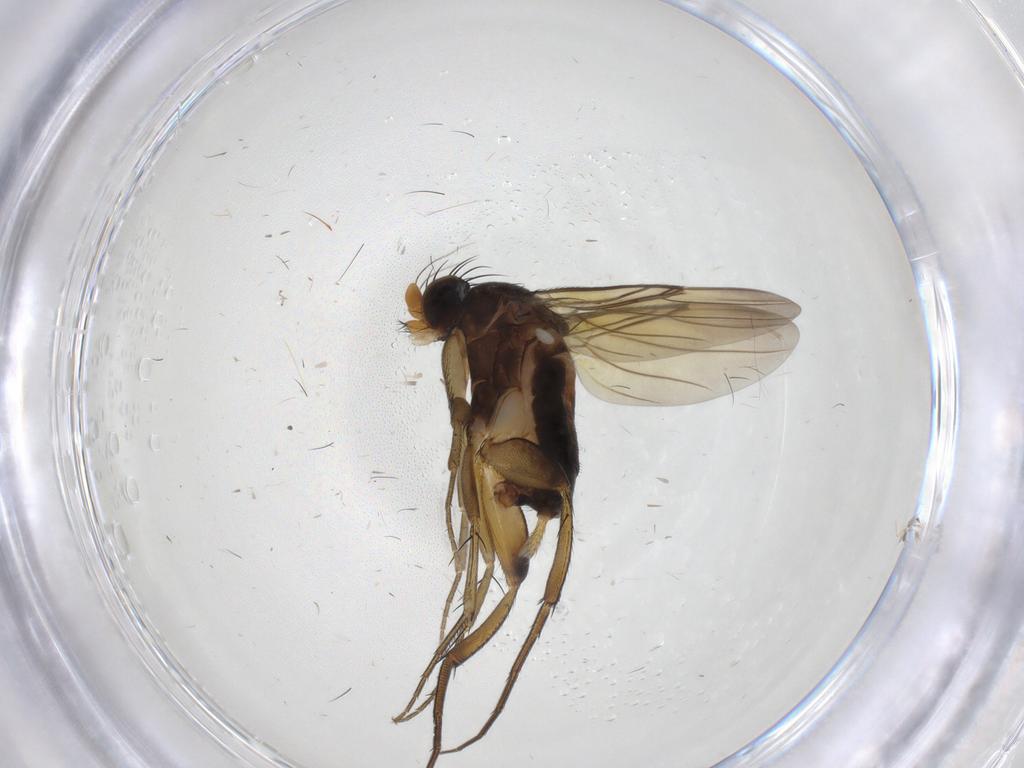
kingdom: Animalia
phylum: Arthropoda
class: Insecta
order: Diptera
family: Phoridae
